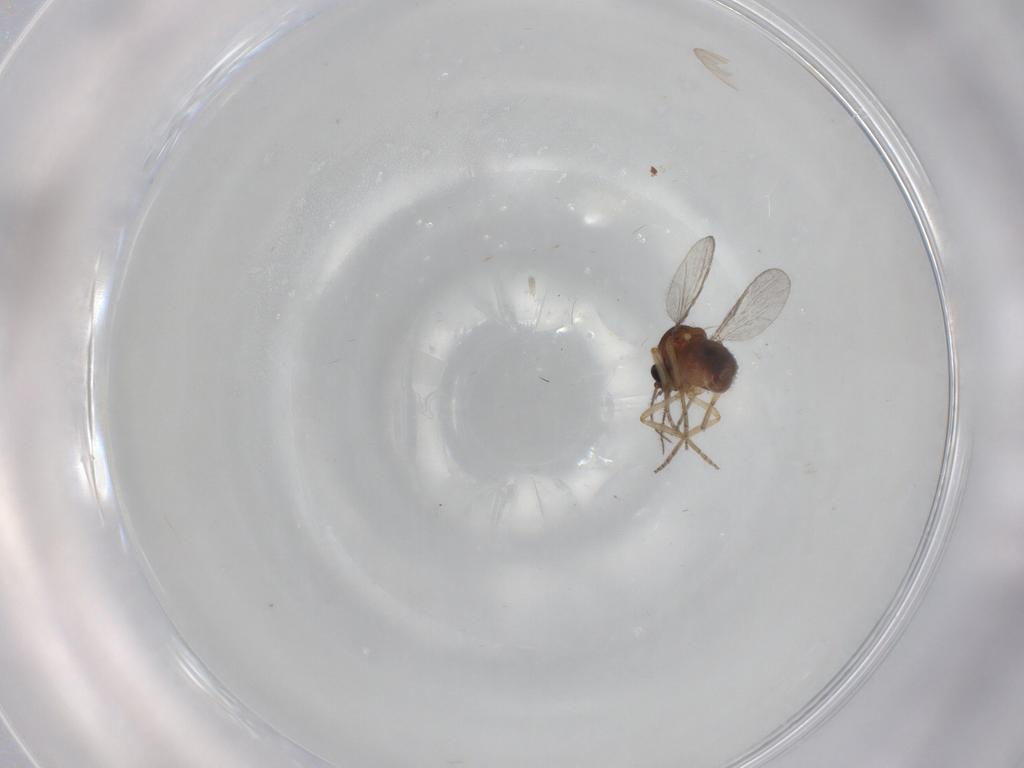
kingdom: Animalia
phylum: Arthropoda
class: Insecta
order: Diptera
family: Ceratopogonidae
